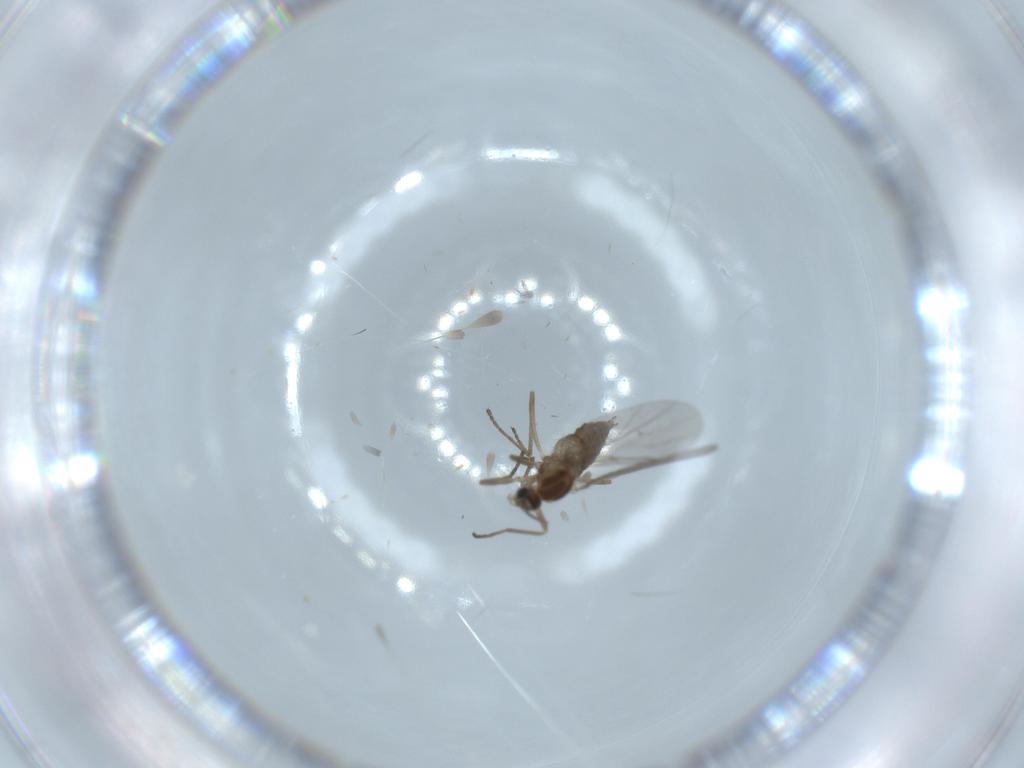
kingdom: Animalia
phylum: Arthropoda
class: Insecta
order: Diptera
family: Cecidomyiidae
